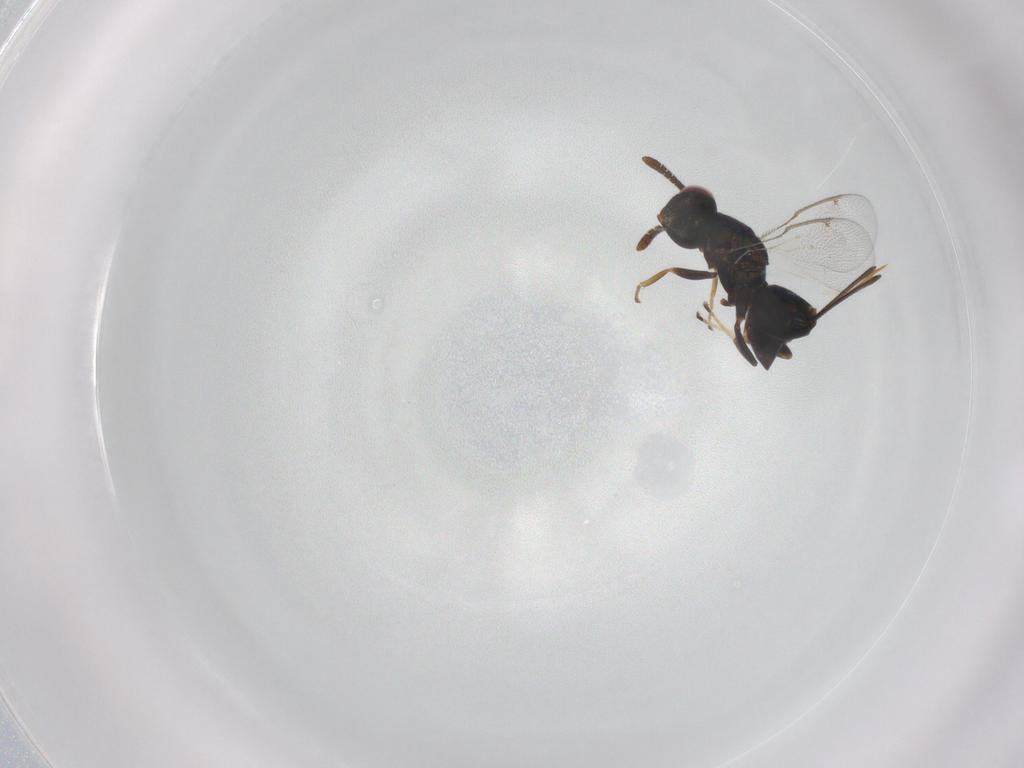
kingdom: Animalia
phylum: Arthropoda
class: Insecta
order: Hymenoptera
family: Torymidae
